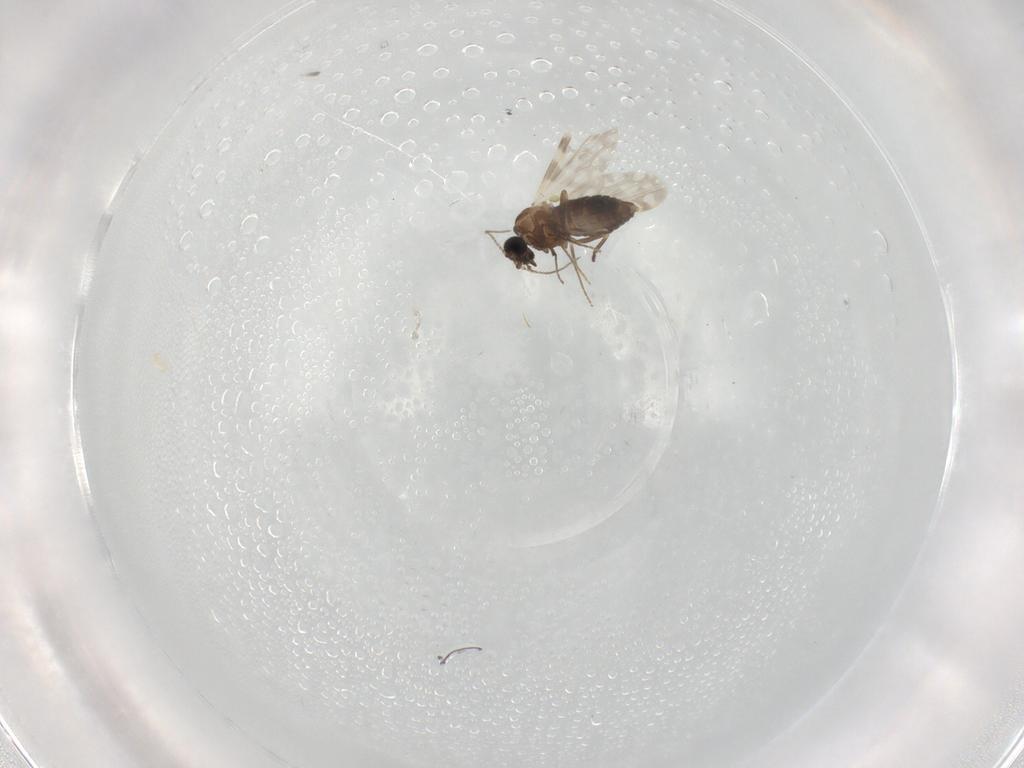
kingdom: Animalia
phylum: Arthropoda
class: Insecta
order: Diptera
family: Ceratopogonidae
